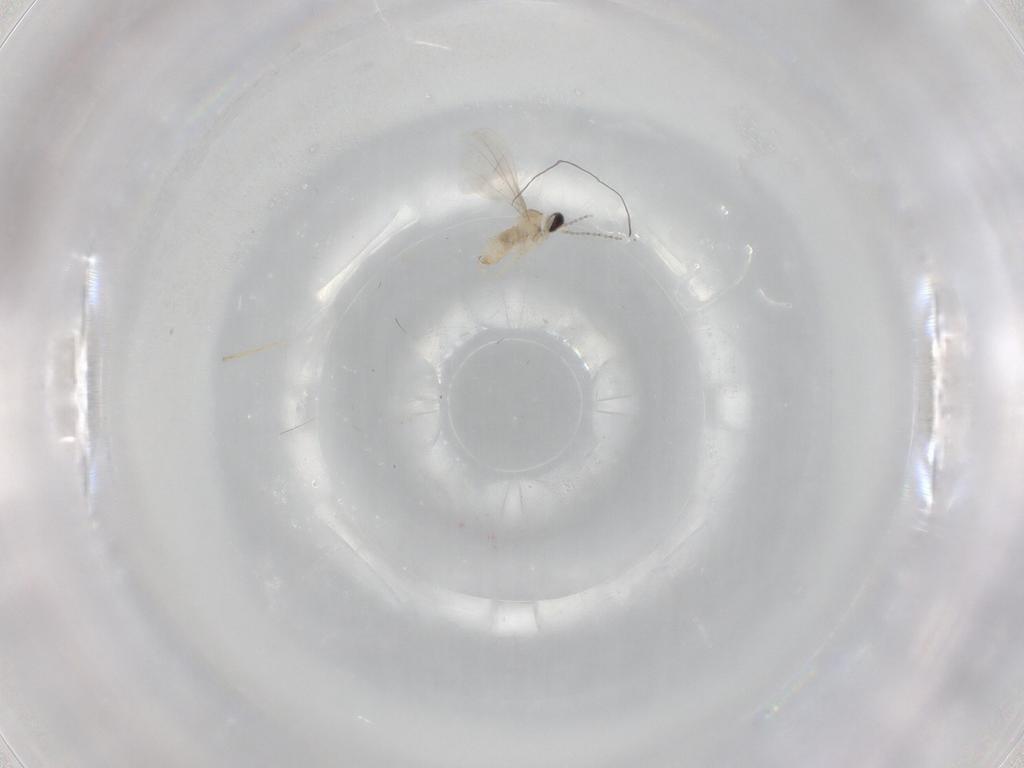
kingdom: Animalia
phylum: Arthropoda
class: Insecta
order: Diptera
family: Cecidomyiidae
